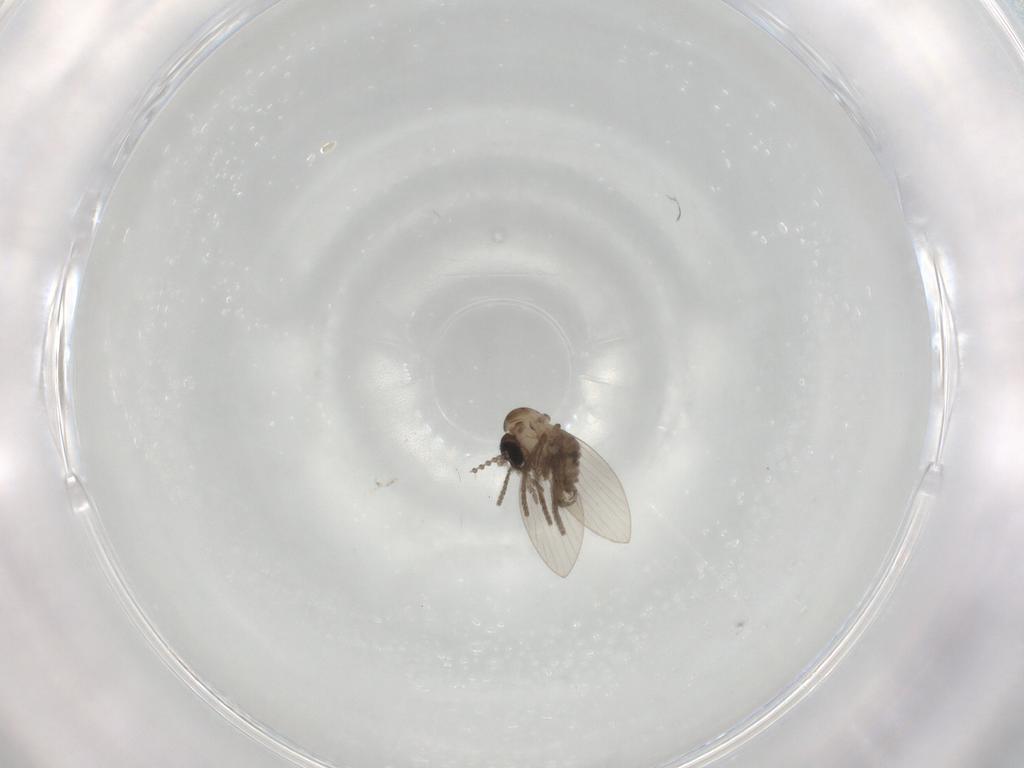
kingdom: Animalia
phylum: Arthropoda
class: Insecta
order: Diptera
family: Psychodidae
